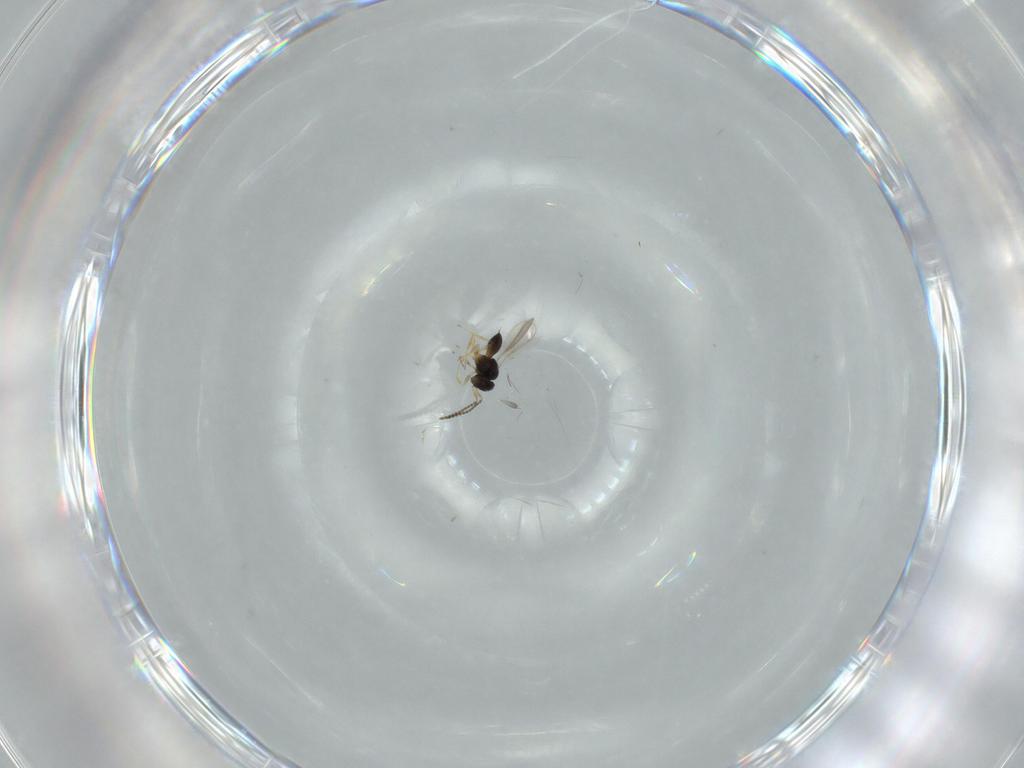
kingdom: Animalia
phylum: Arthropoda
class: Insecta
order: Hymenoptera
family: Scelionidae
